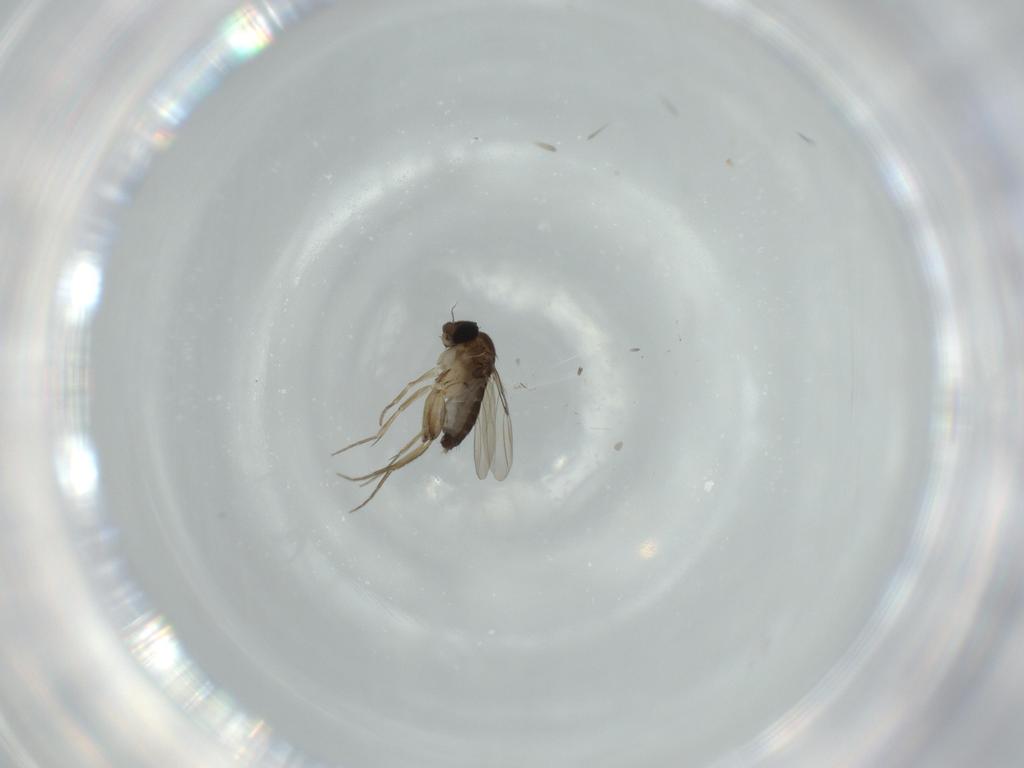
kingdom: Animalia
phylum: Arthropoda
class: Insecta
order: Diptera
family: Phoridae
